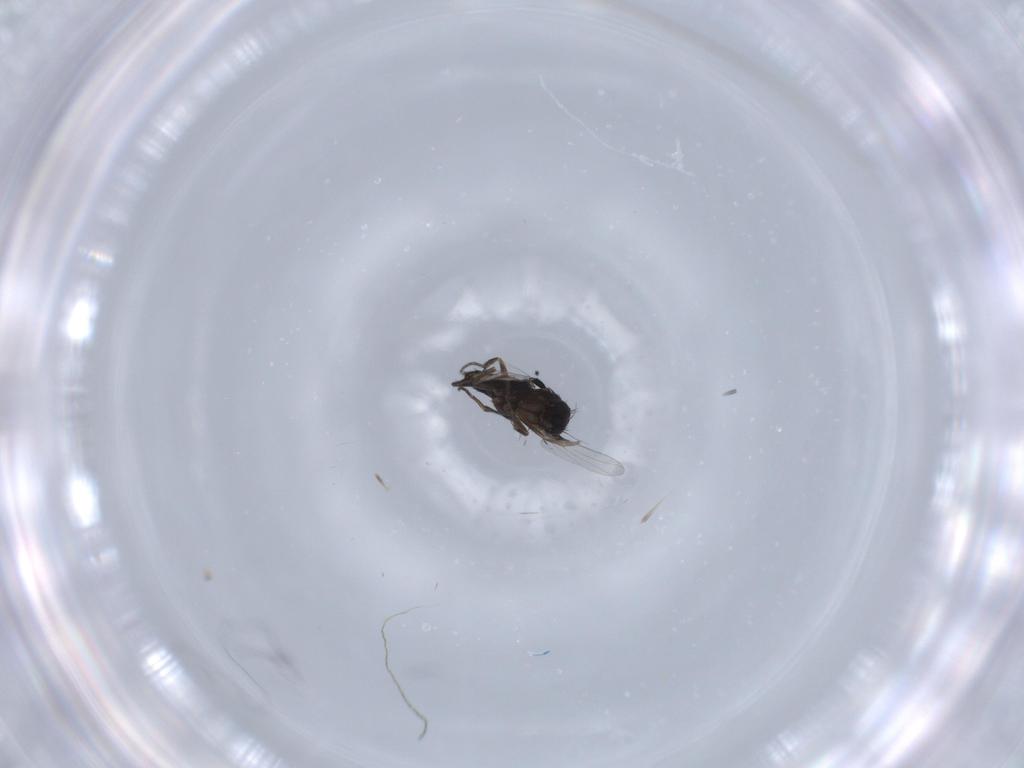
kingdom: Animalia
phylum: Arthropoda
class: Insecta
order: Diptera
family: Phoridae
